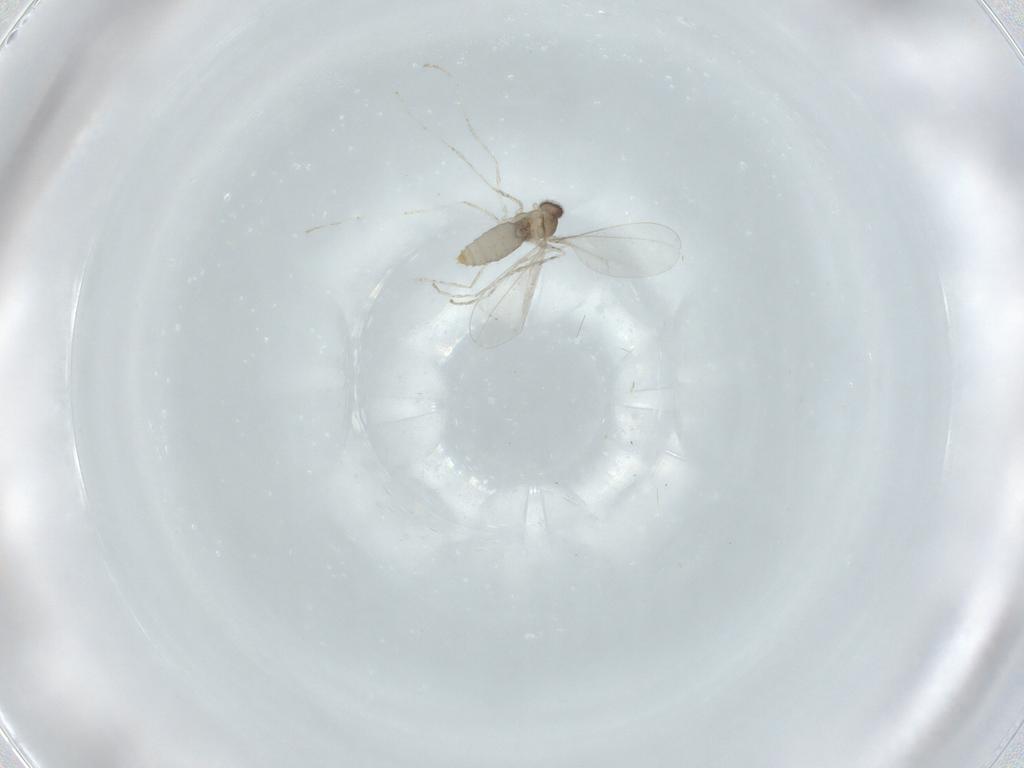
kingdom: Animalia
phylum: Arthropoda
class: Insecta
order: Diptera
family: Cecidomyiidae
